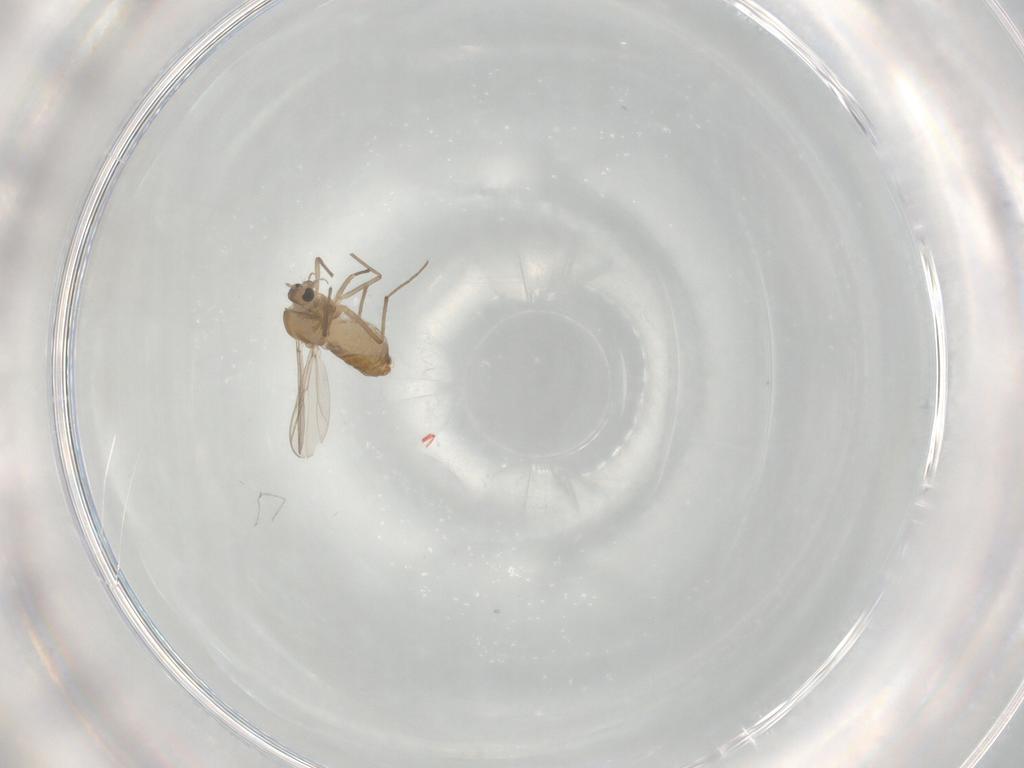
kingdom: Animalia
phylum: Arthropoda
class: Insecta
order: Diptera
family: Chironomidae
